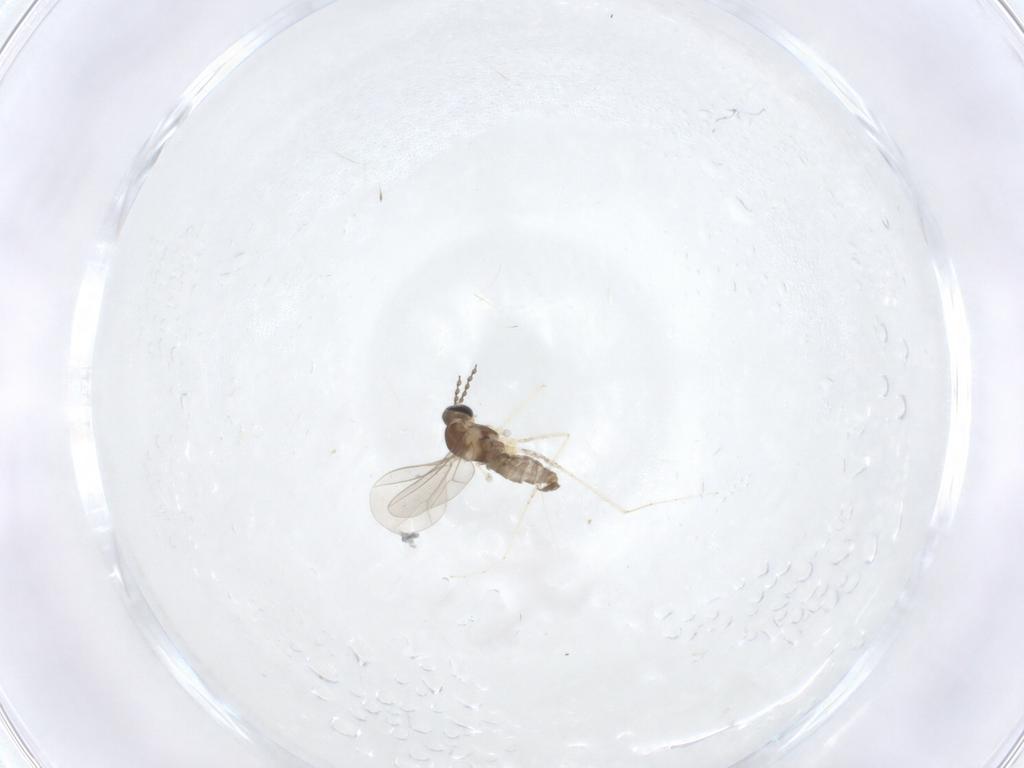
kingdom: Animalia
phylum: Arthropoda
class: Insecta
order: Diptera
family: Cecidomyiidae
